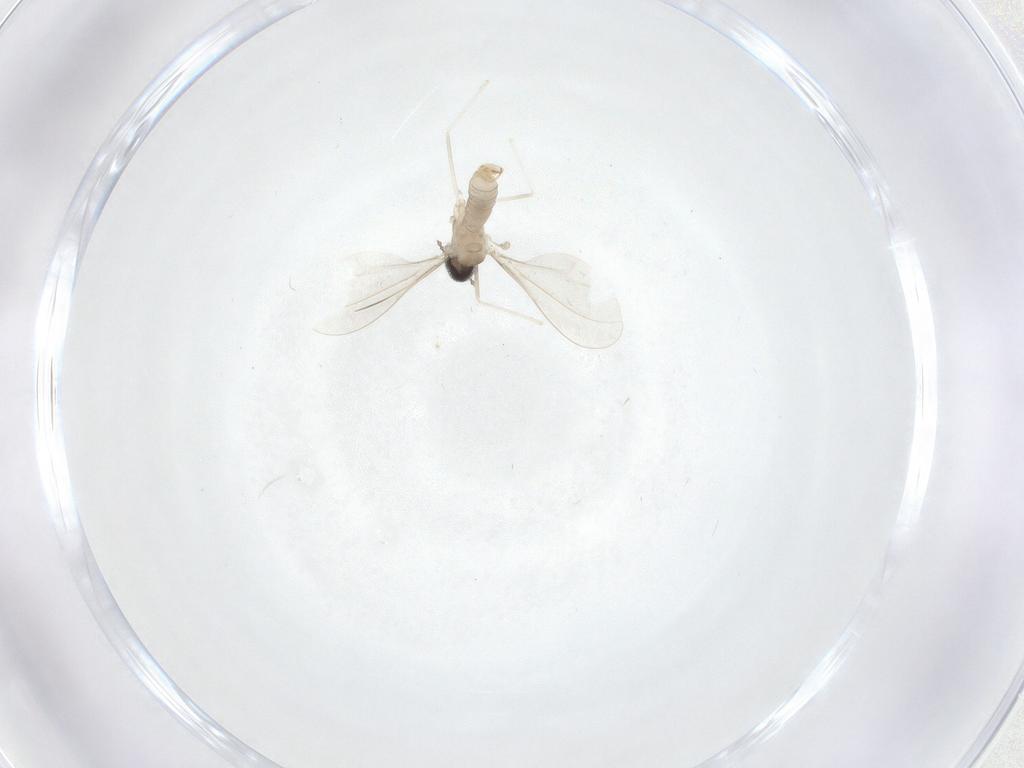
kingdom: Animalia
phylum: Arthropoda
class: Insecta
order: Diptera
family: Cecidomyiidae
